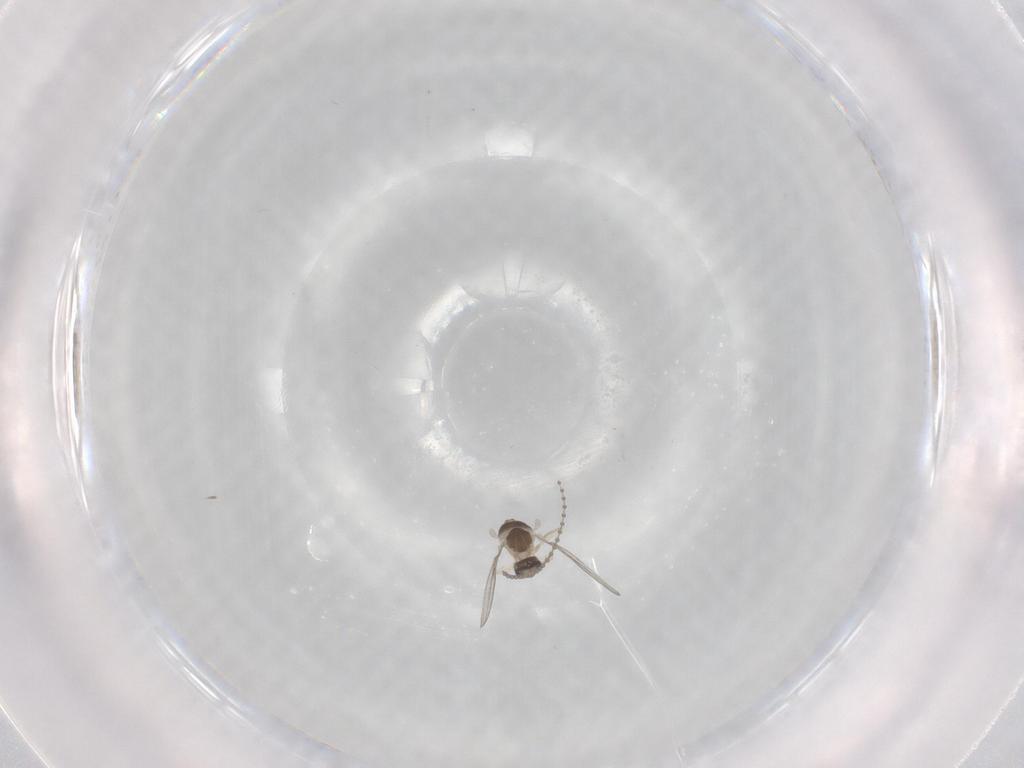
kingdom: Animalia
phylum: Arthropoda
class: Insecta
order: Diptera
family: Cecidomyiidae
